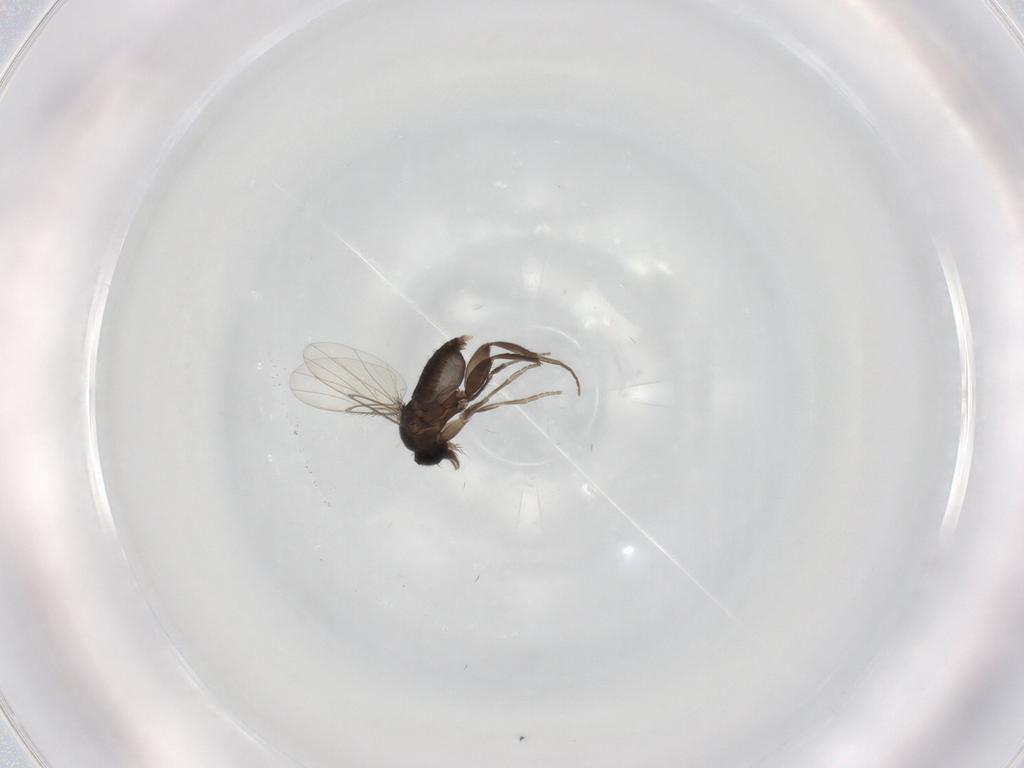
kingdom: Animalia
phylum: Arthropoda
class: Insecta
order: Diptera
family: Phoridae
